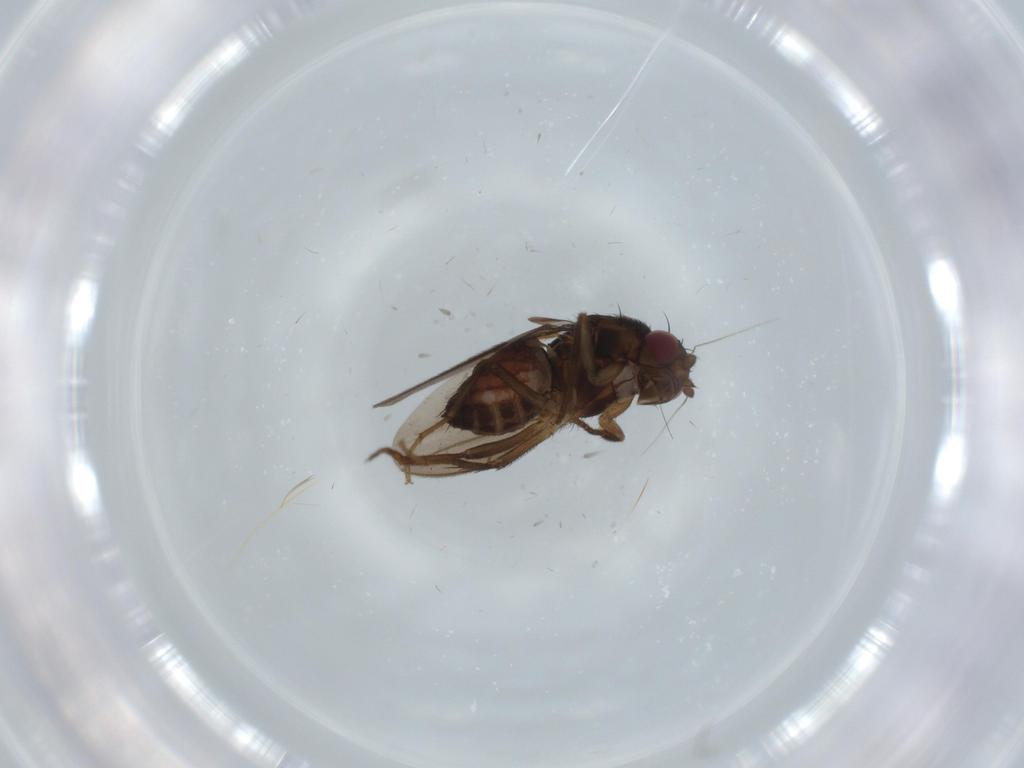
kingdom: Animalia
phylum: Arthropoda
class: Insecta
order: Diptera
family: Sphaeroceridae
